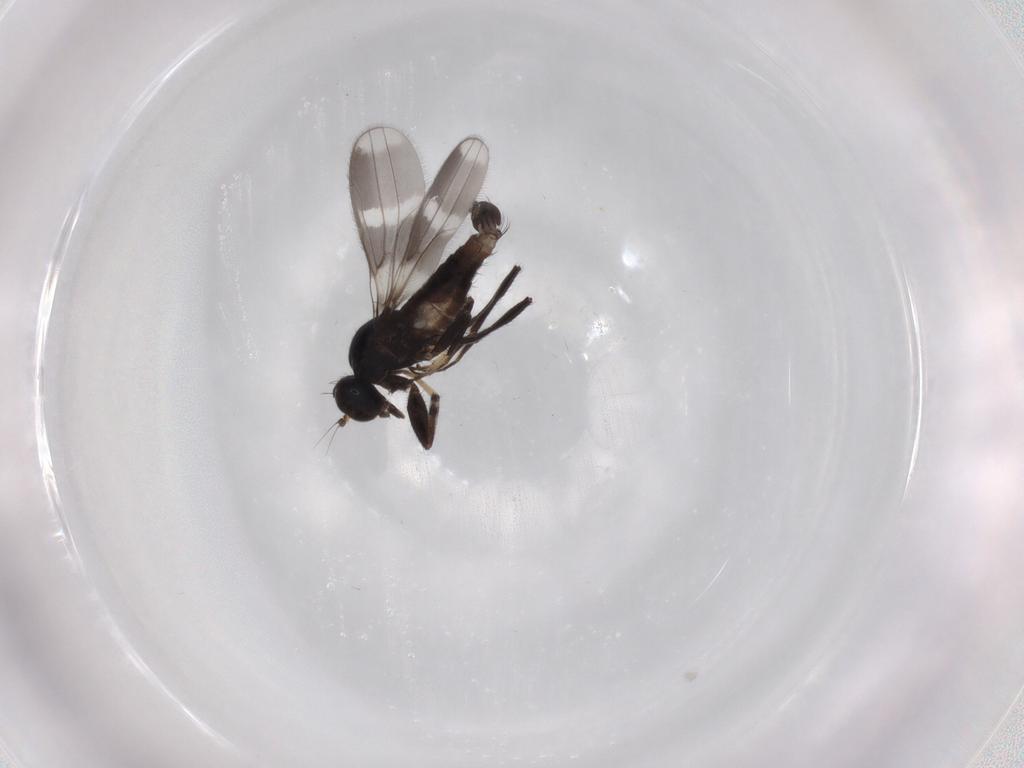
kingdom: Animalia
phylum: Arthropoda
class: Insecta
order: Diptera
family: Hybotidae
